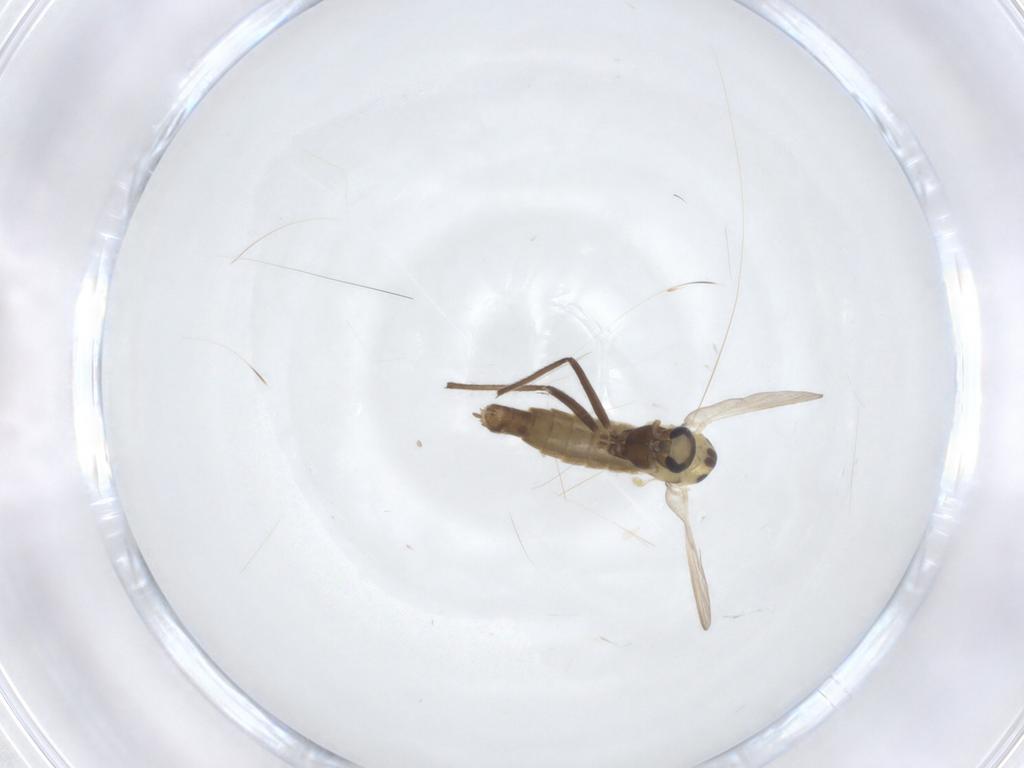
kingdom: Animalia
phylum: Arthropoda
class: Insecta
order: Diptera
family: Chironomidae
